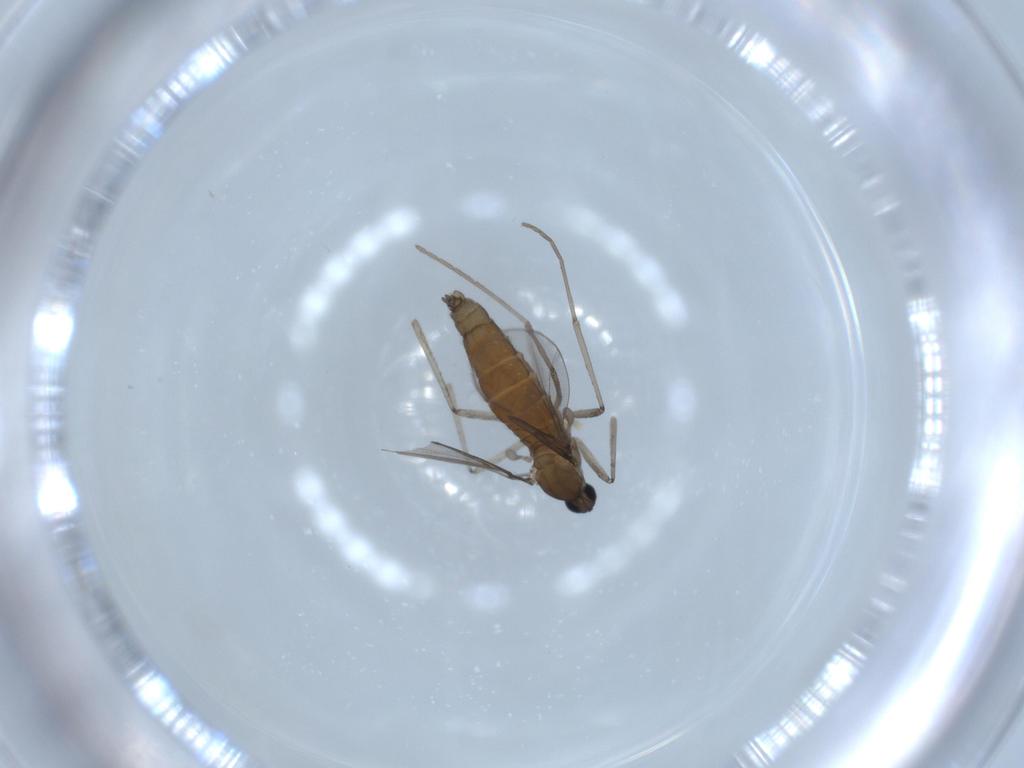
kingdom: Animalia
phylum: Arthropoda
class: Insecta
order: Diptera
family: Cecidomyiidae
